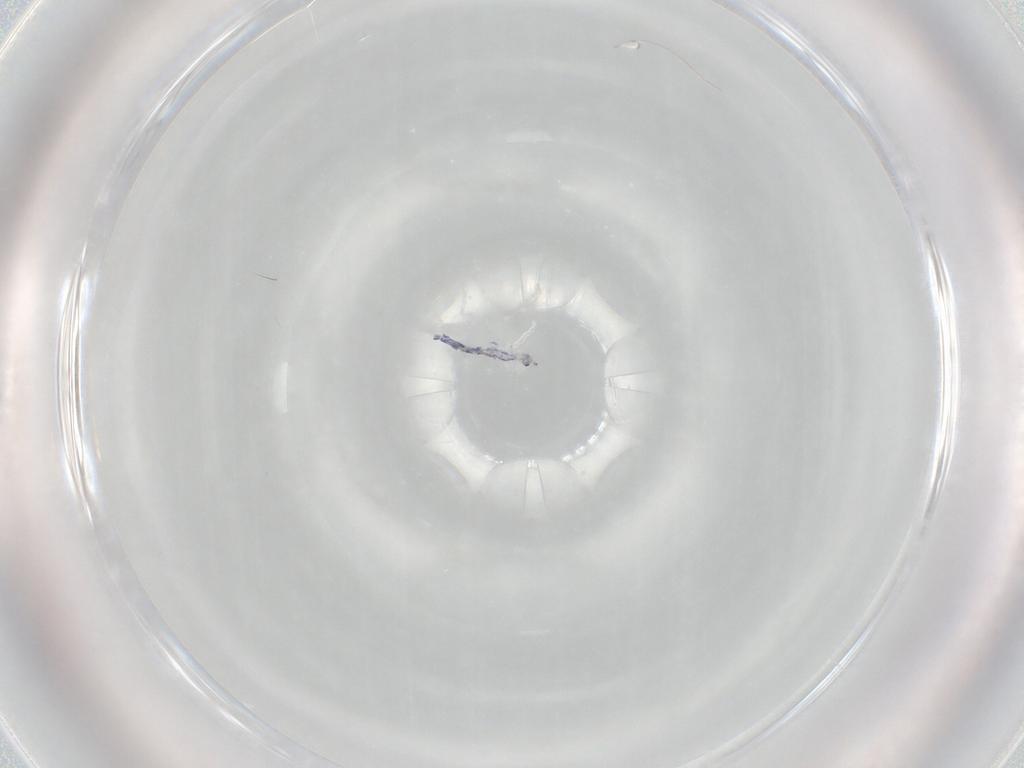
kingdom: Animalia
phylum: Arthropoda
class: Collembola
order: Entomobryomorpha
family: Entomobryidae
